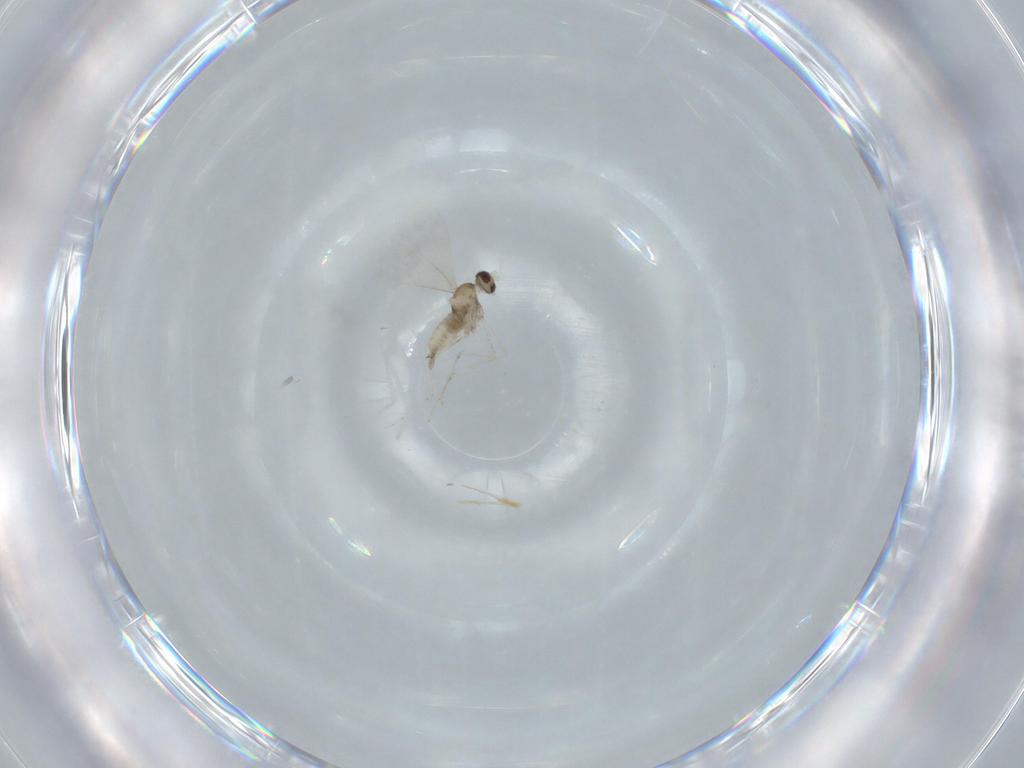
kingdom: Animalia
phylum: Arthropoda
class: Insecta
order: Diptera
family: Cecidomyiidae
